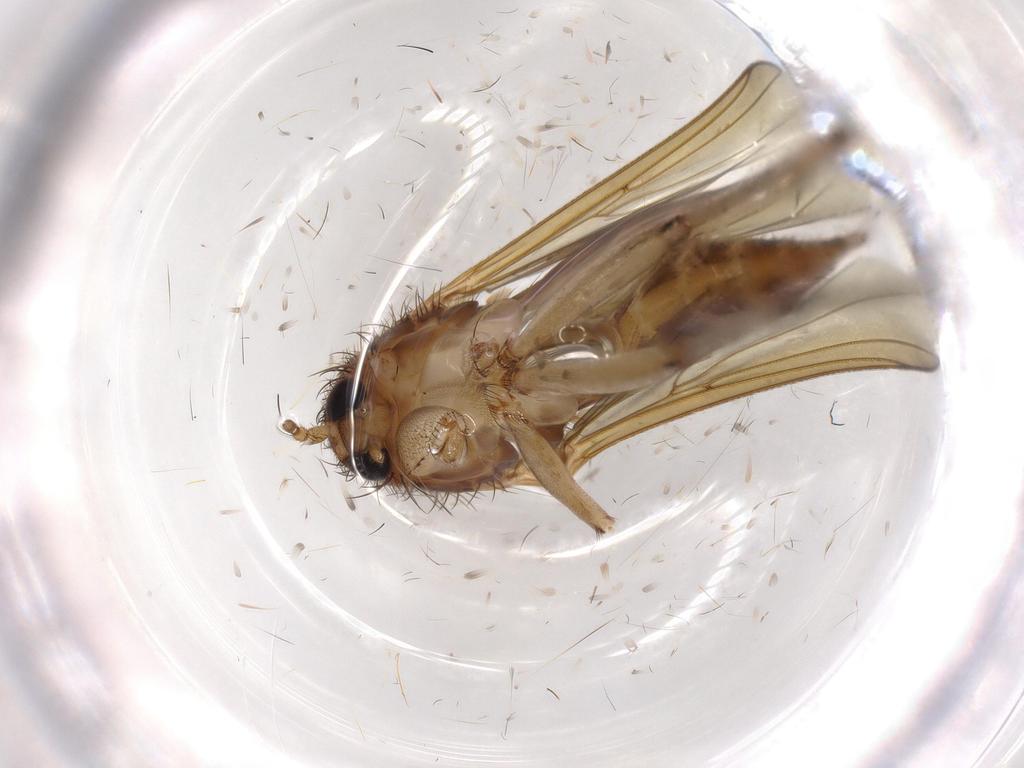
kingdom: Animalia
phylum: Arthropoda
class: Insecta
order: Diptera
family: Mycetophilidae
